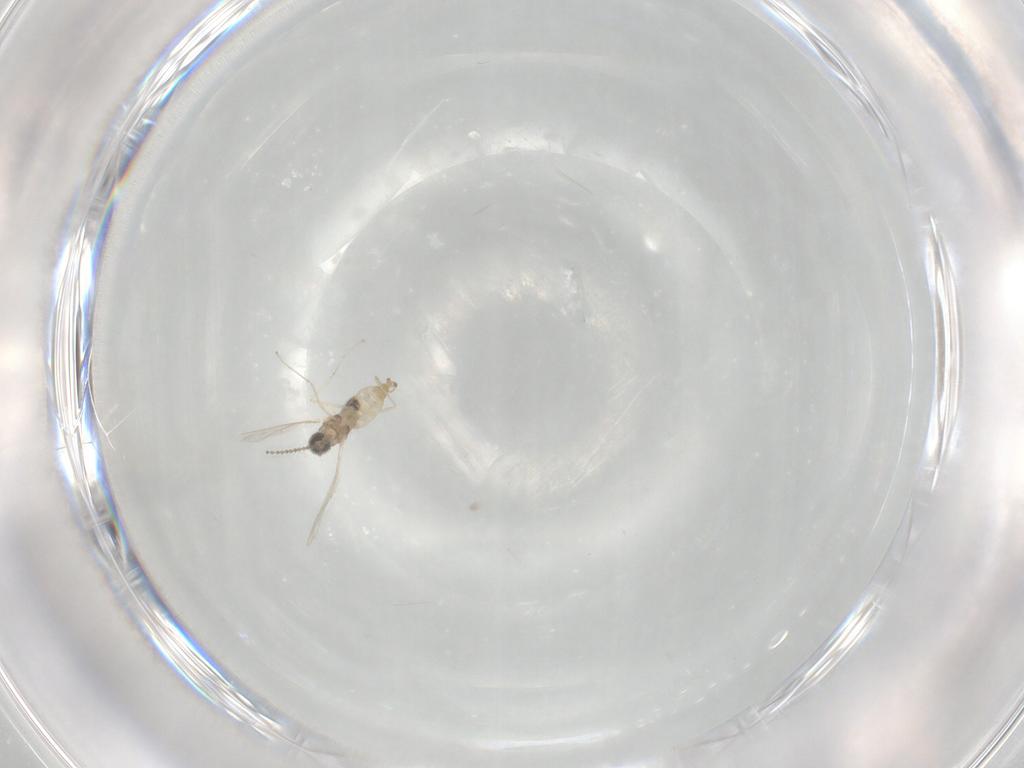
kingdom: Animalia
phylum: Arthropoda
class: Insecta
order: Diptera
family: Cecidomyiidae
